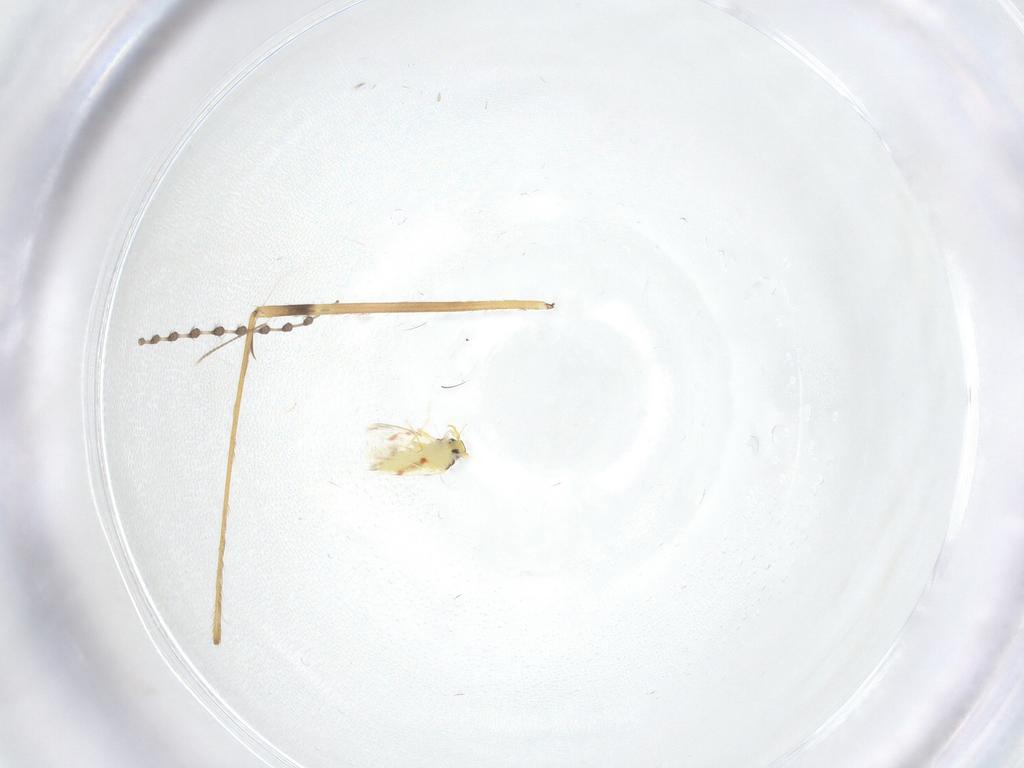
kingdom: Animalia
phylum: Arthropoda
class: Insecta
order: Diptera
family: Limoniidae
